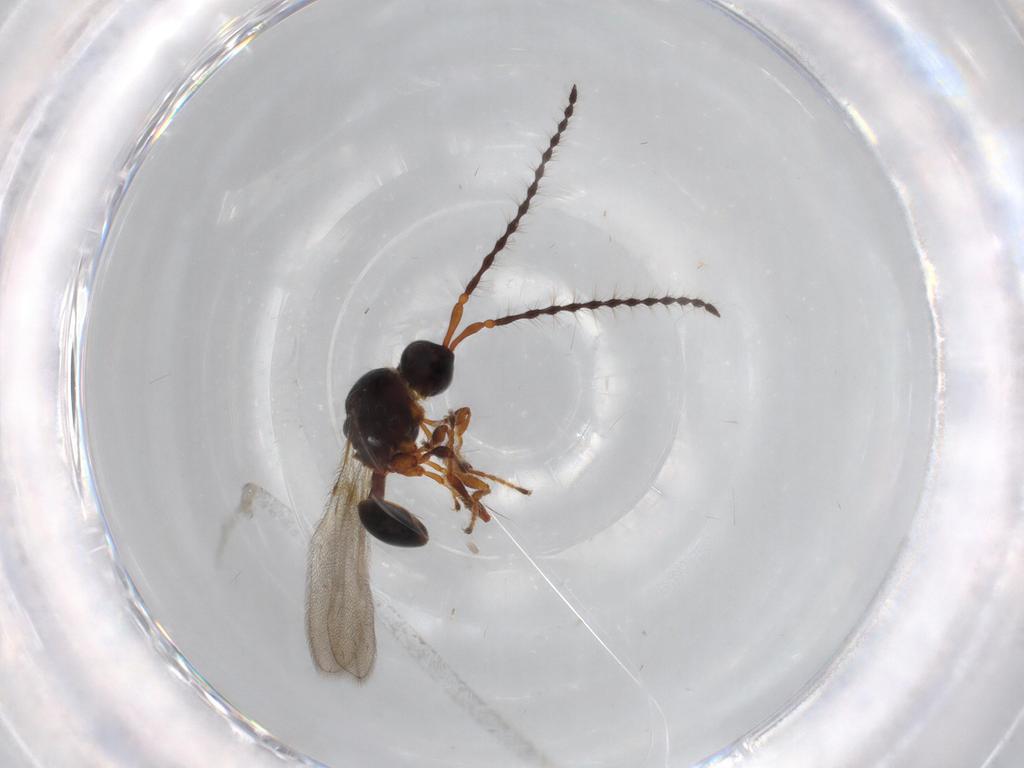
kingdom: Animalia
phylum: Arthropoda
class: Insecta
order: Hymenoptera
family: Diapriidae
